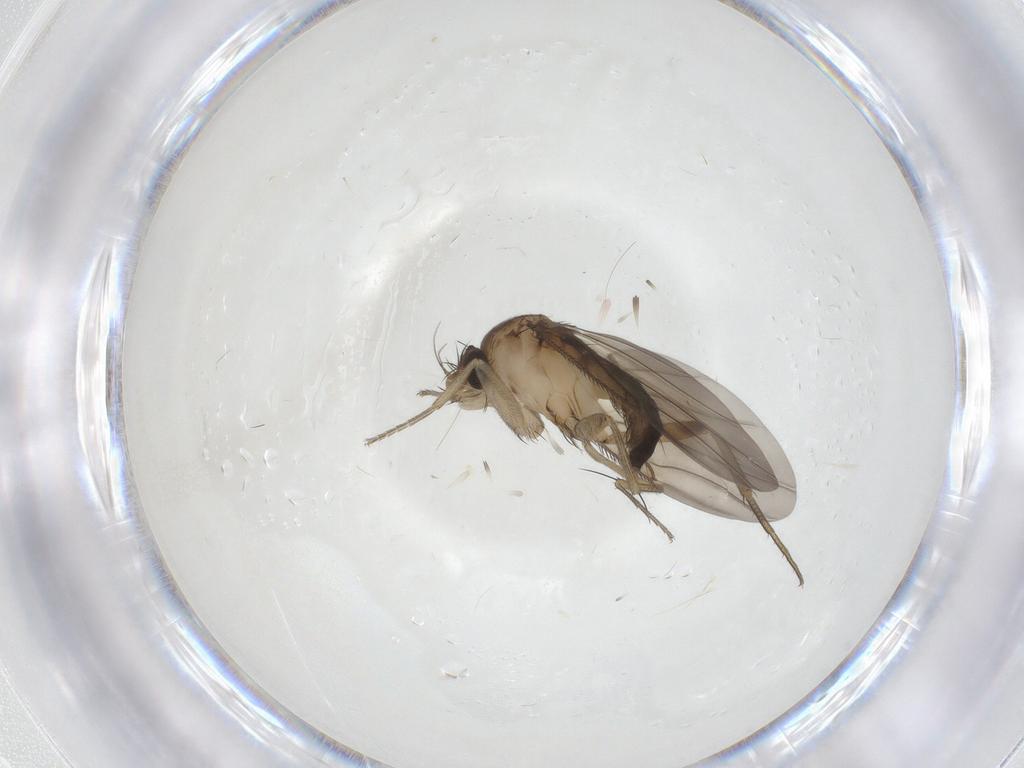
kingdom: Animalia
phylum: Arthropoda
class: Insecta
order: Diptera
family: Phoridae
